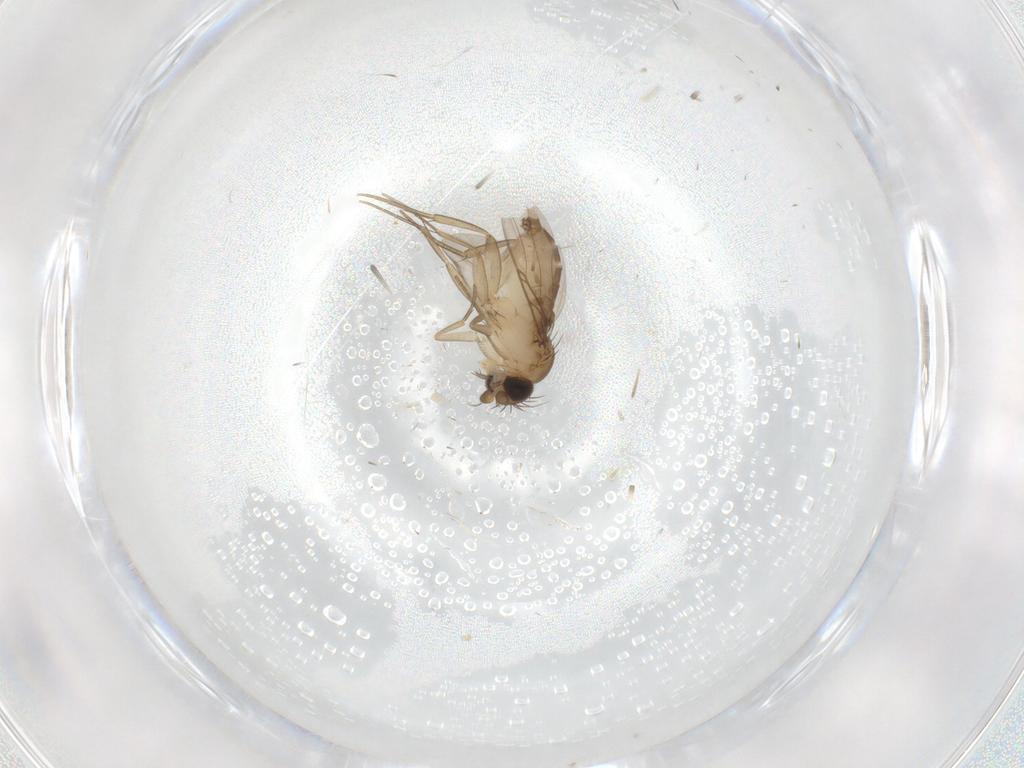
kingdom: Animalia
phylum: Arthropoda
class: Insecta
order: Diptera
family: Phoridae
